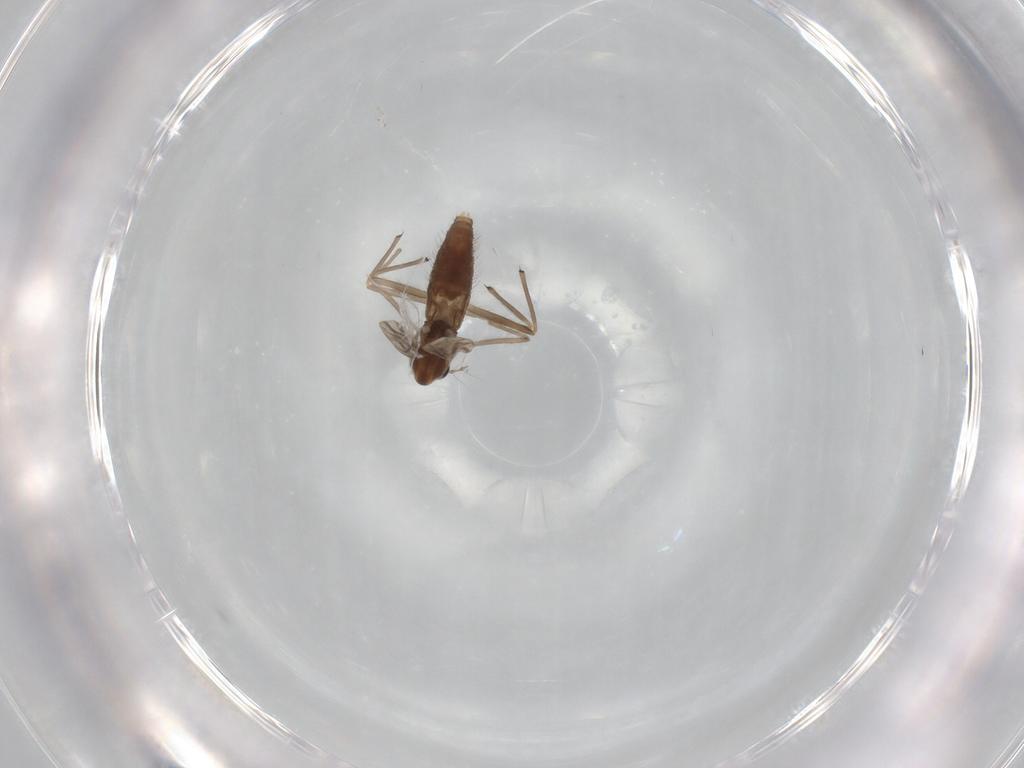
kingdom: Animalia
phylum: Arthropoda
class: Insecta
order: Diptera
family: Chironomidae
